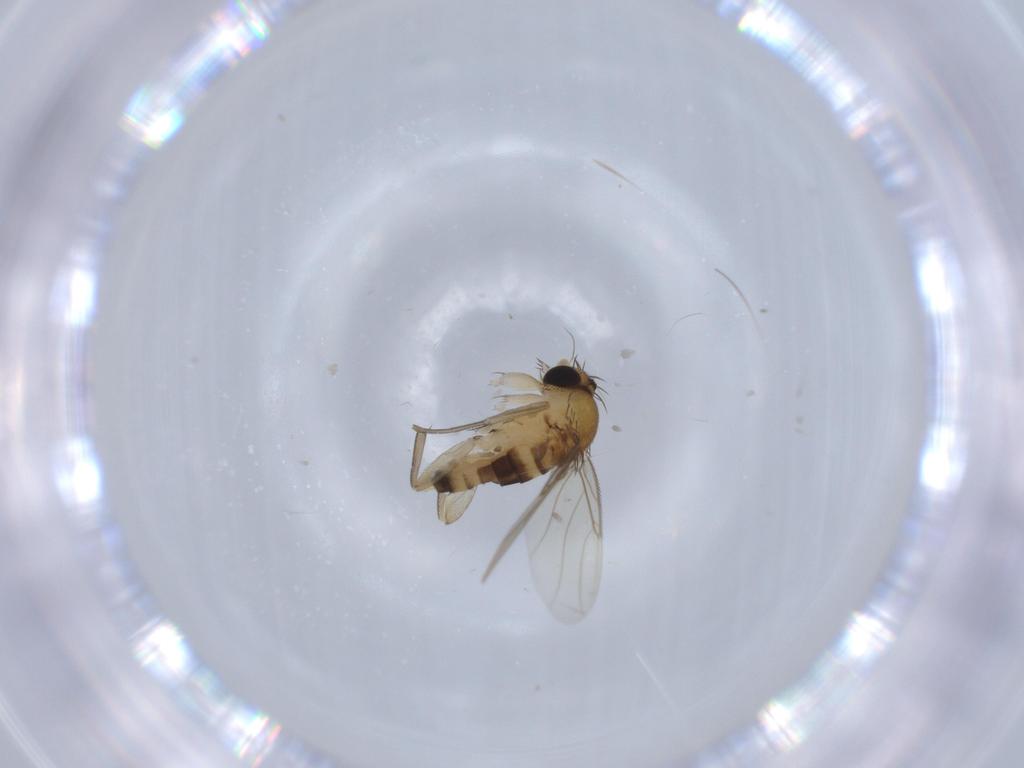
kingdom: Animalia
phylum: Arthropoda
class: Insecta
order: Diptera
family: Phoridae
